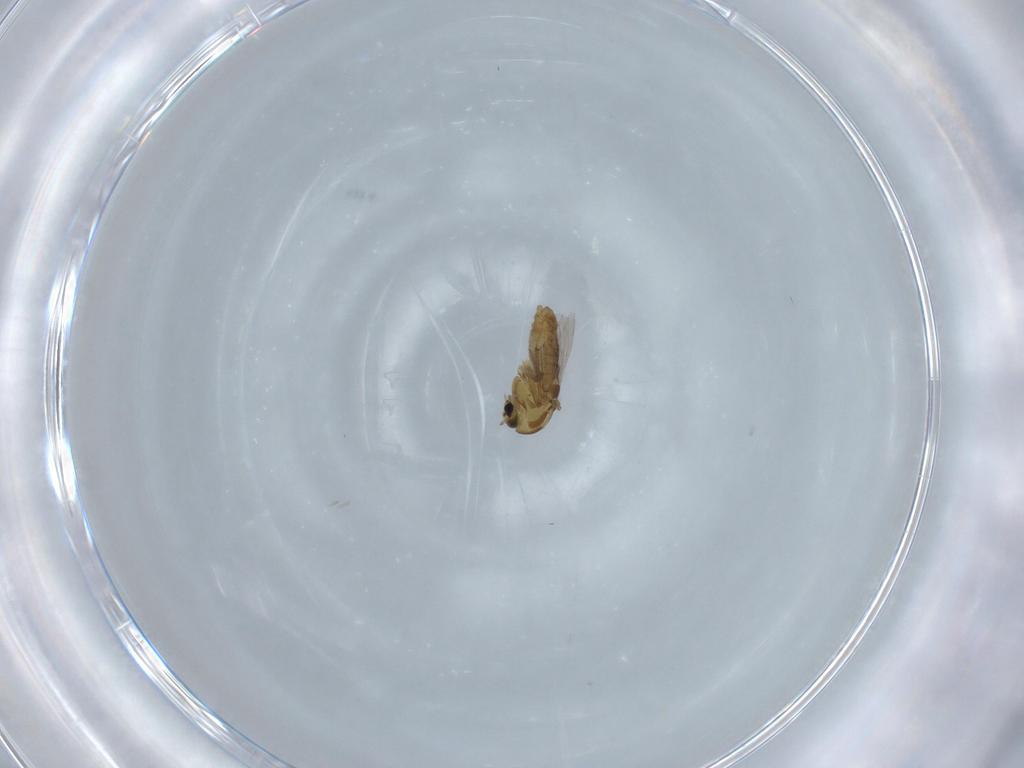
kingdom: Animalia
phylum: Arthropoda
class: Insecta
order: Diptera
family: Chironomidae
